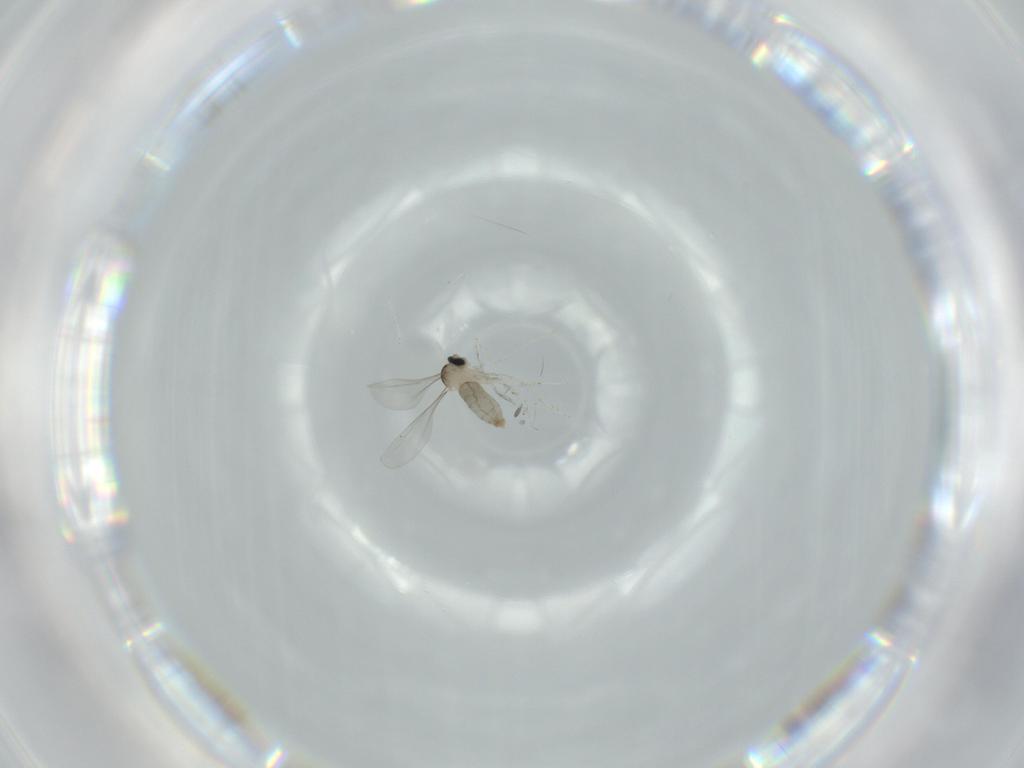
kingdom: Animalia
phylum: Arthropoda
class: Insecta
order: Diptera
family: Cecidomyiidae
